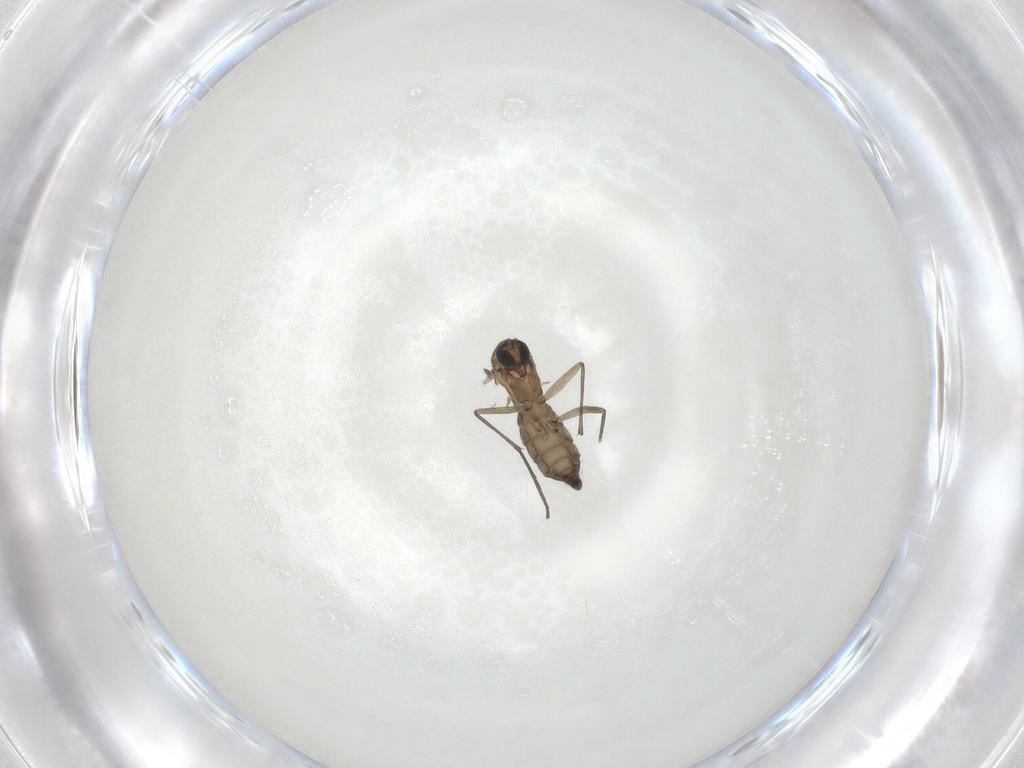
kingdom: Animalia
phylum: Arthropoda
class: Insecta
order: Diptera
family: Sciaridae
